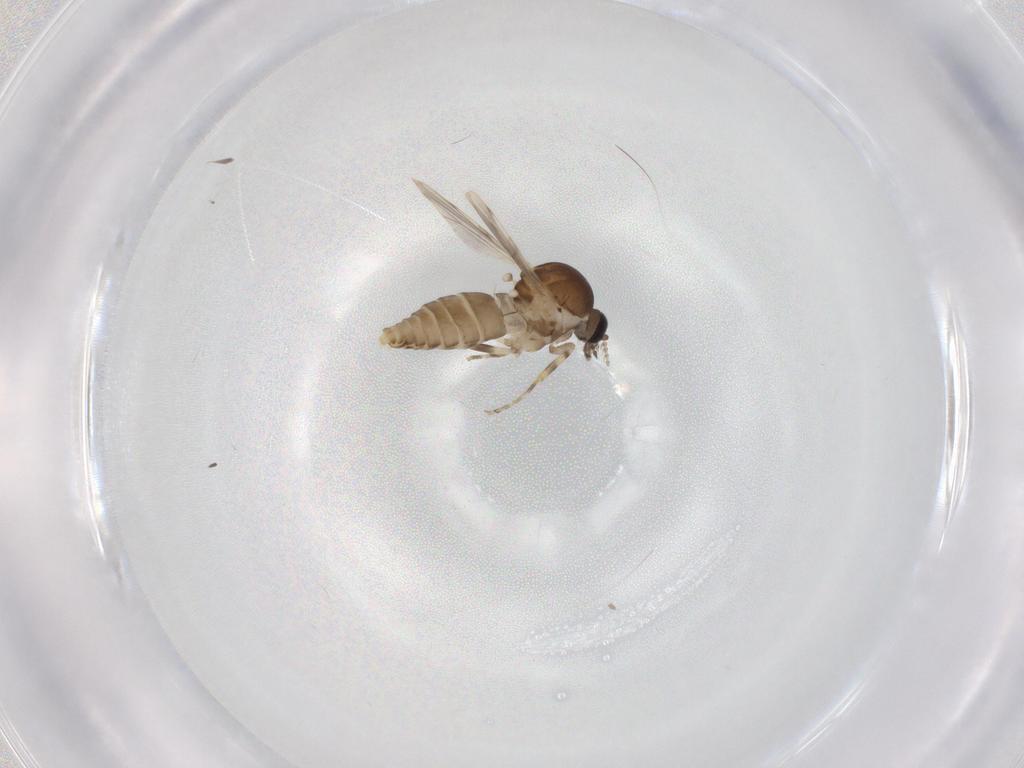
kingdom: Animalia
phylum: Arthropoda
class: Insecta
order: Diptera
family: Ceratopogonidae
